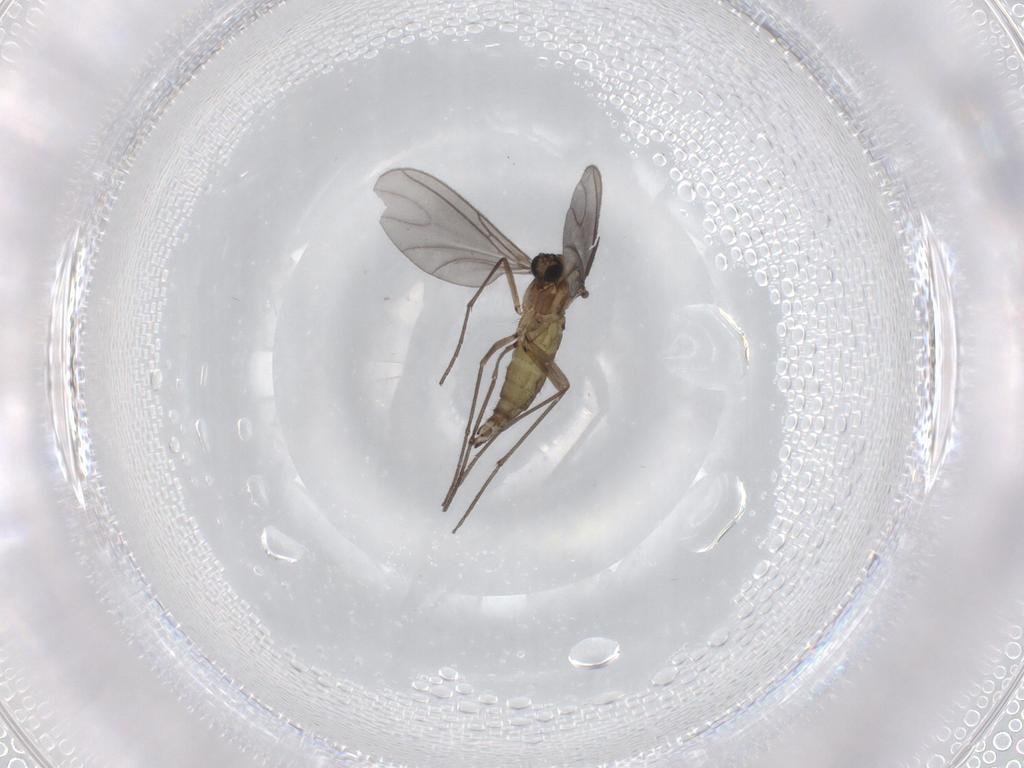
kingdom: Animalia
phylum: Arthropoda
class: Insecta
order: Diptera
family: Sciaridae
